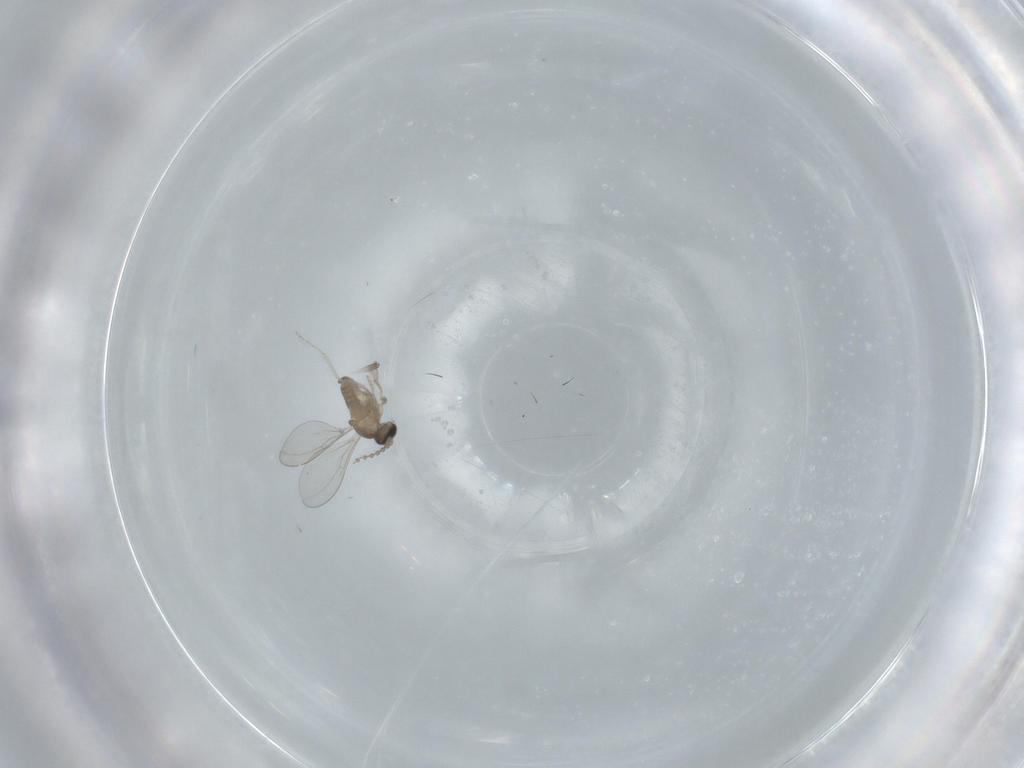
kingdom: Animalia
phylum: Arthropoda
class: Insecta
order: Diptera
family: Cecidomyiidae
